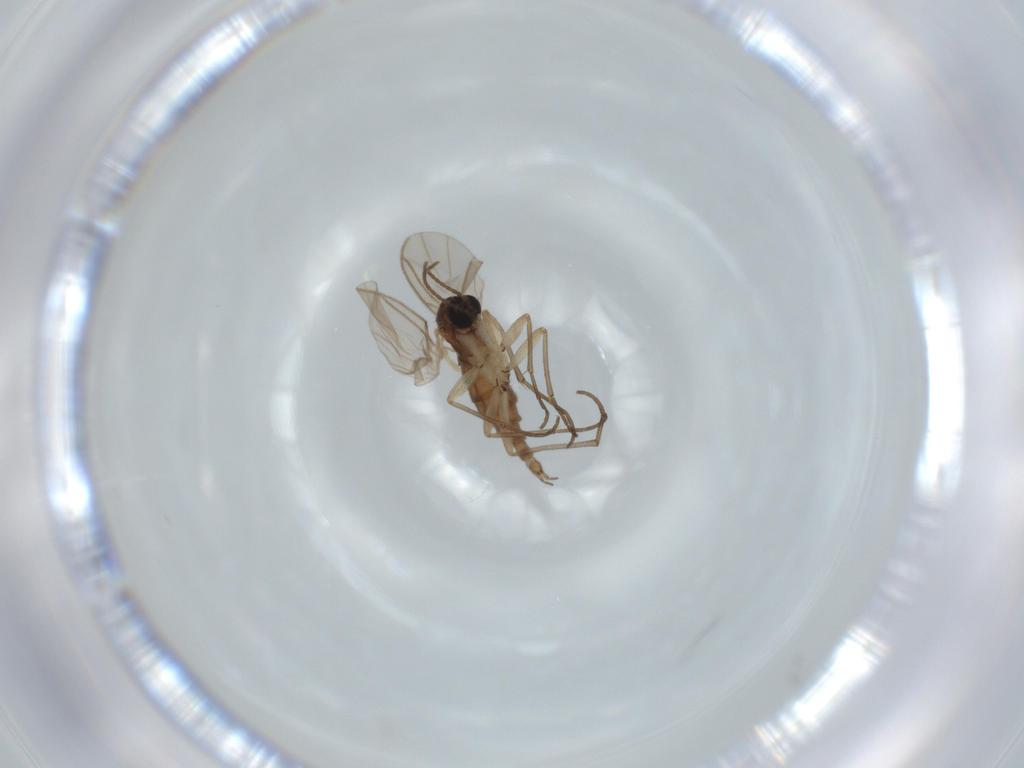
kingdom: Animalia
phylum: Arthropoda
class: Insecta
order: Diptera
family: Sciaridae
